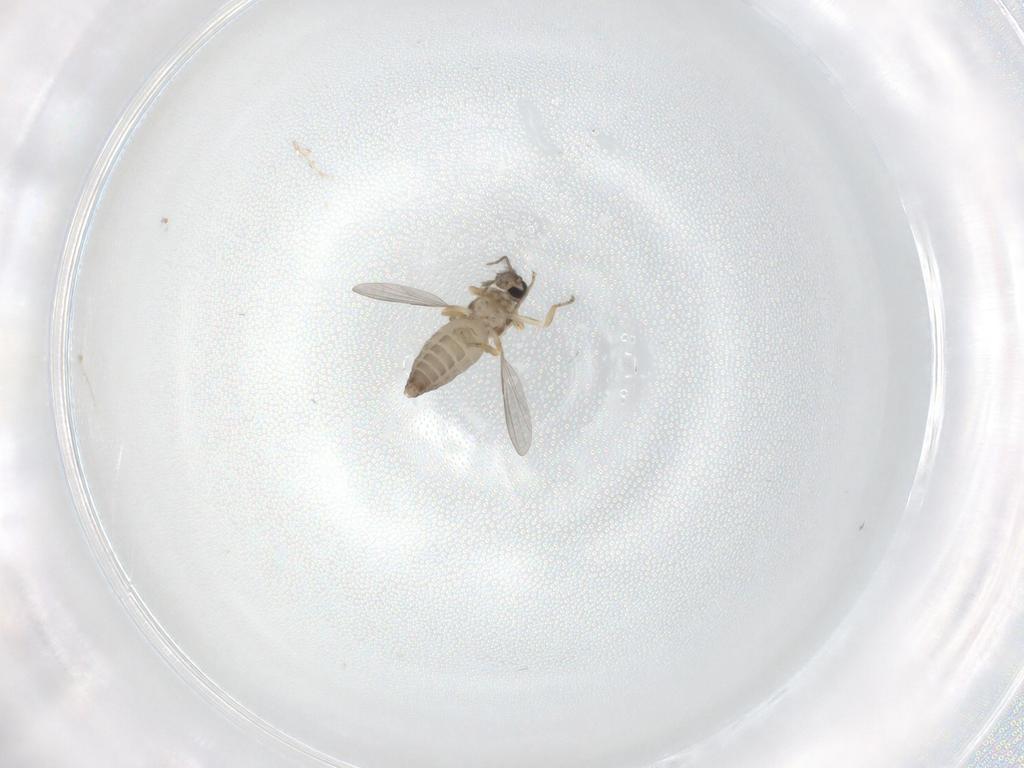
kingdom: Animalia
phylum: Arthropoda
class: Insecta
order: Diptera
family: Ceratopogonidae
